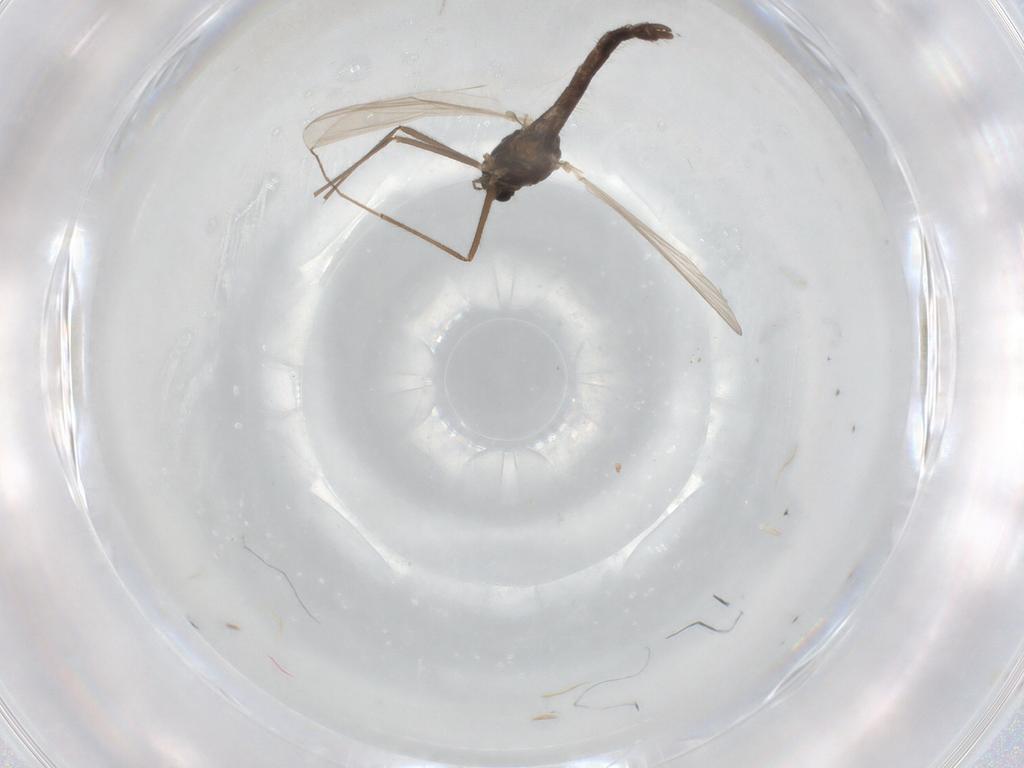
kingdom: Animalia
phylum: Arthropoda
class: Insecta
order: Diptera
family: Chironomidae
